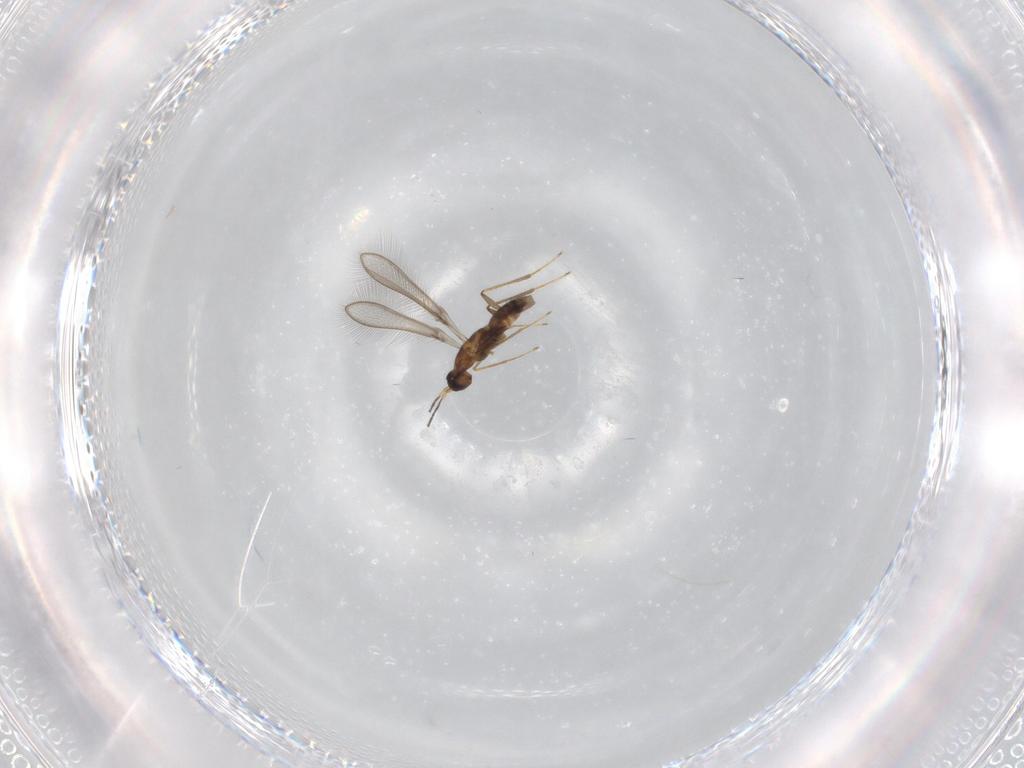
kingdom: Animalia
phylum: Arthropoda
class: Insecta
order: Hymenoptera
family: Mymaridae
